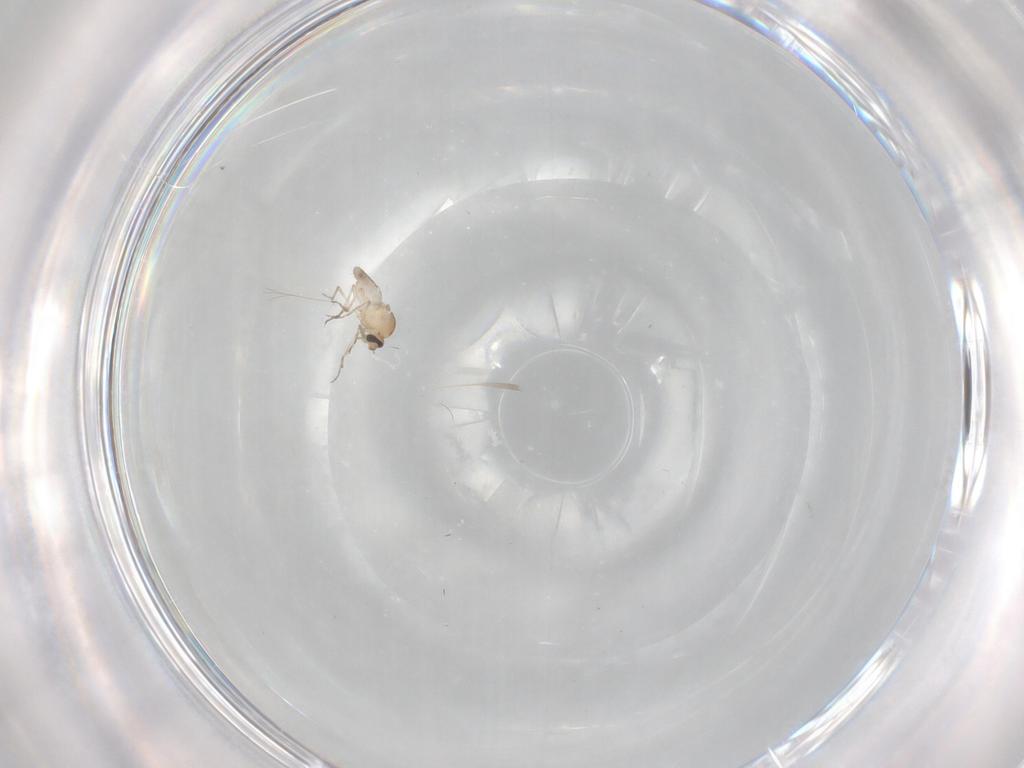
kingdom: Animalia
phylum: Arthropoda
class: Insecta
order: Diptera
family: Ceratopogonidae
